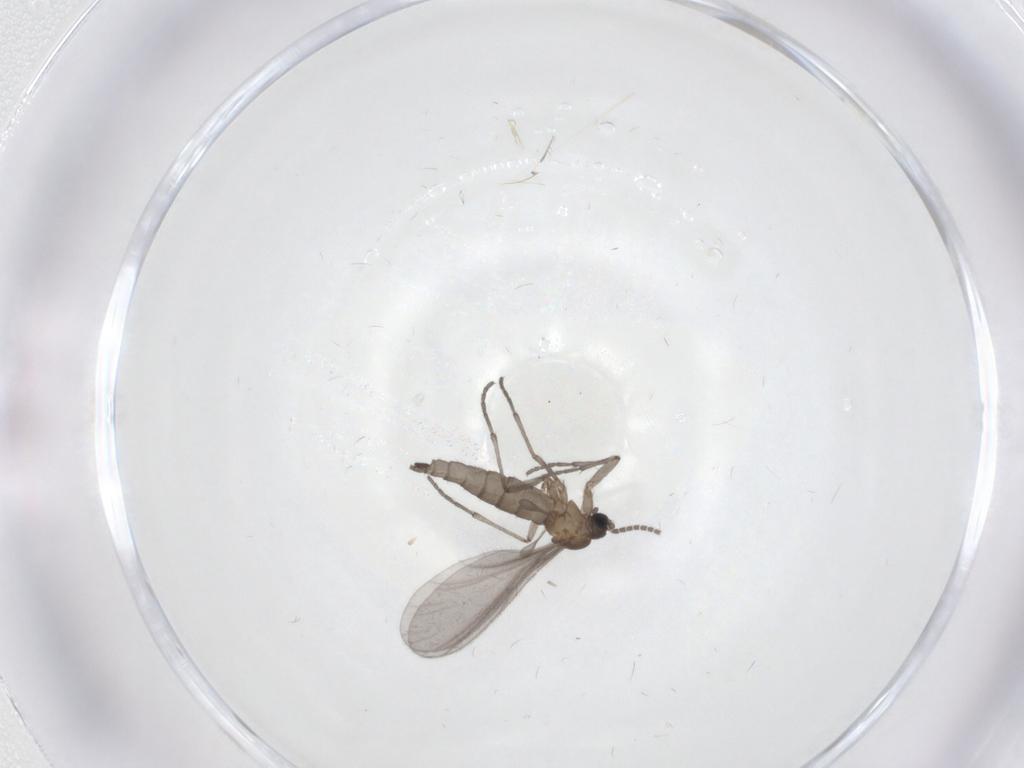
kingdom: Animalia
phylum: Arthropoda
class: Insecta
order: Diptera
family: Sciaridae
